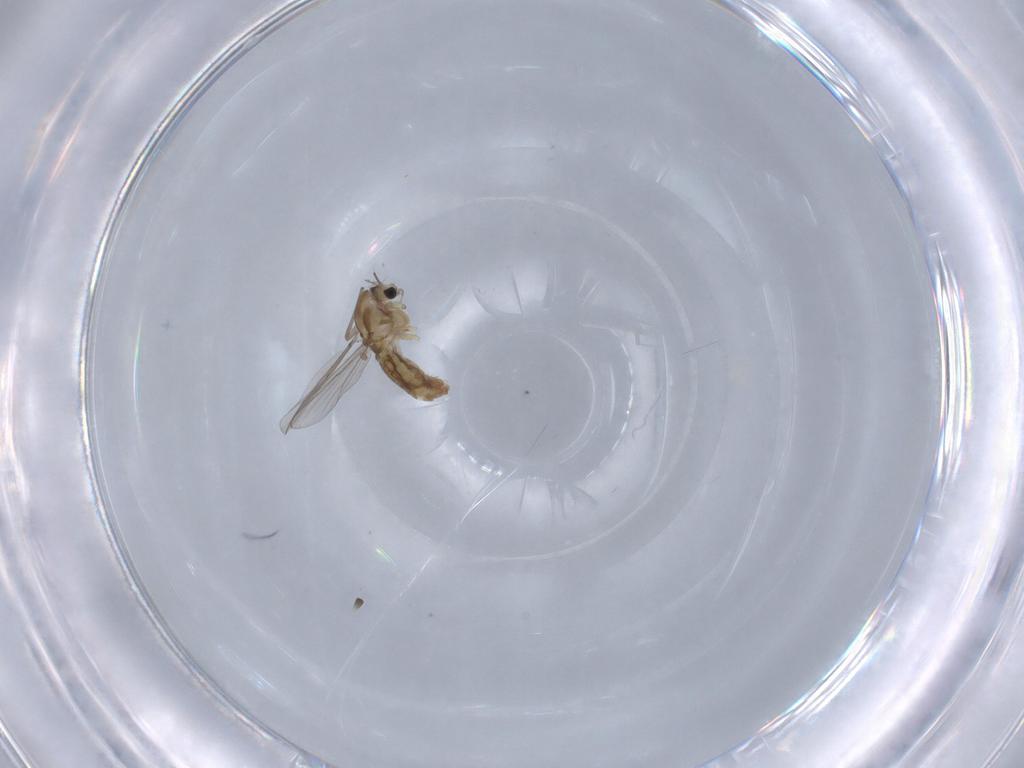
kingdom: Animalia
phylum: Arthropoda
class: Insecta
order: Diptera
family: Chironomidae
